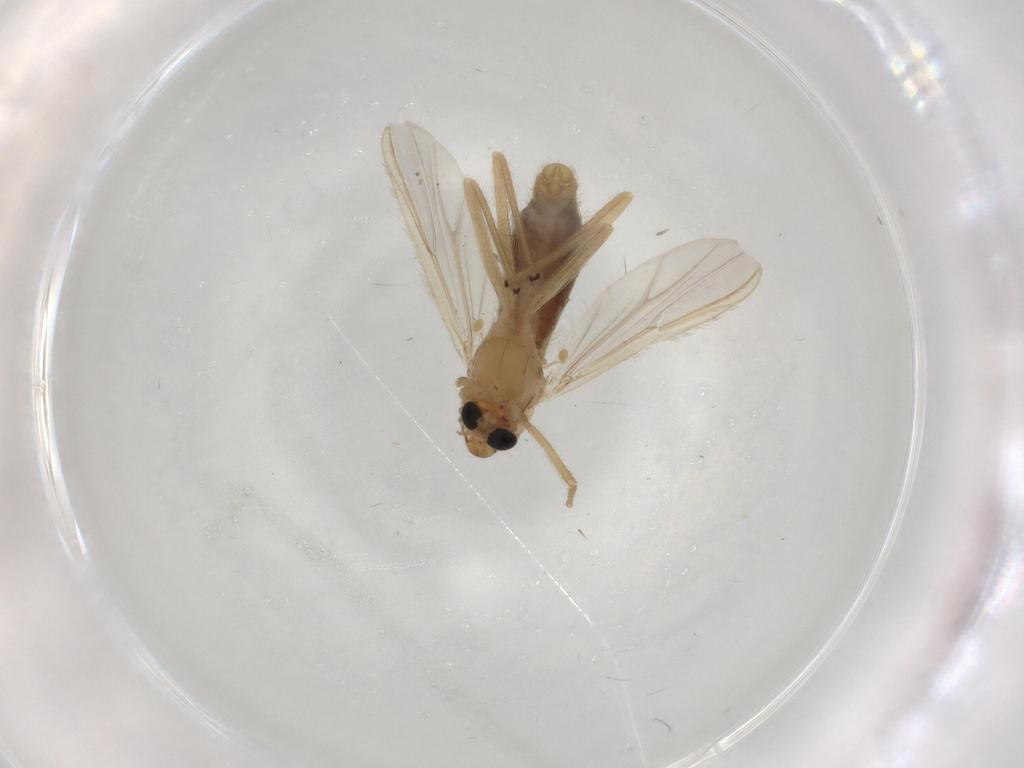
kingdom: Animalia
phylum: Arthropoda
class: Insecta
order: Diptera
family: Chironomidae
